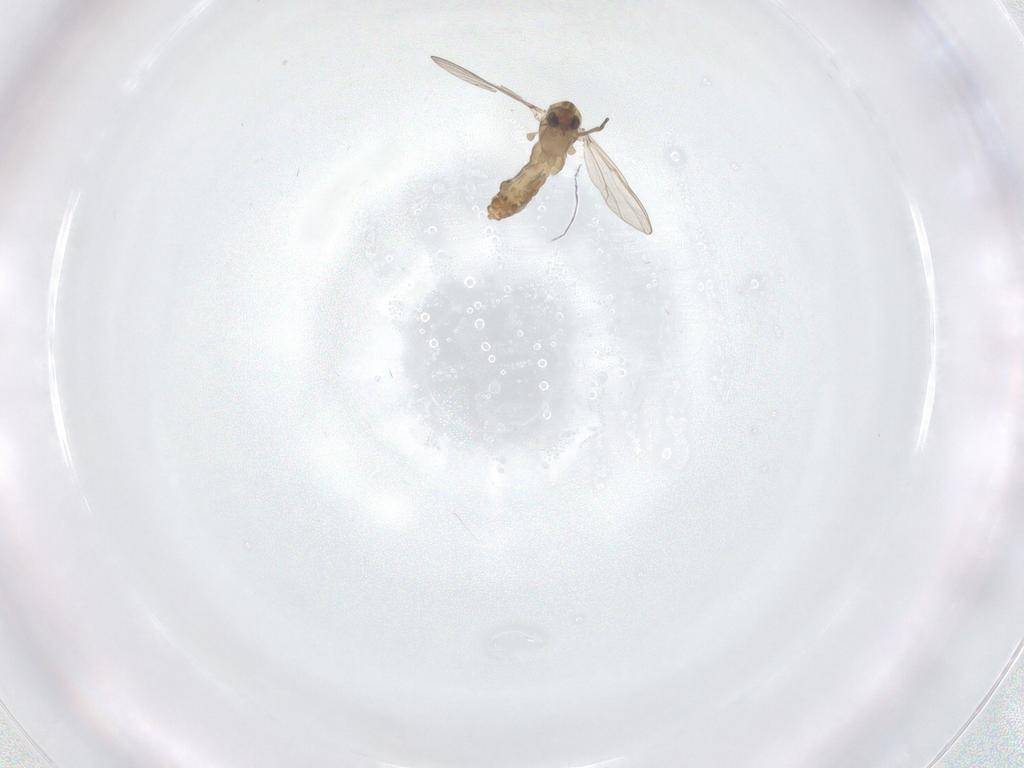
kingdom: Animalia
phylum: Arthropoda
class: Insecta
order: Diptera
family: Chironomidae
